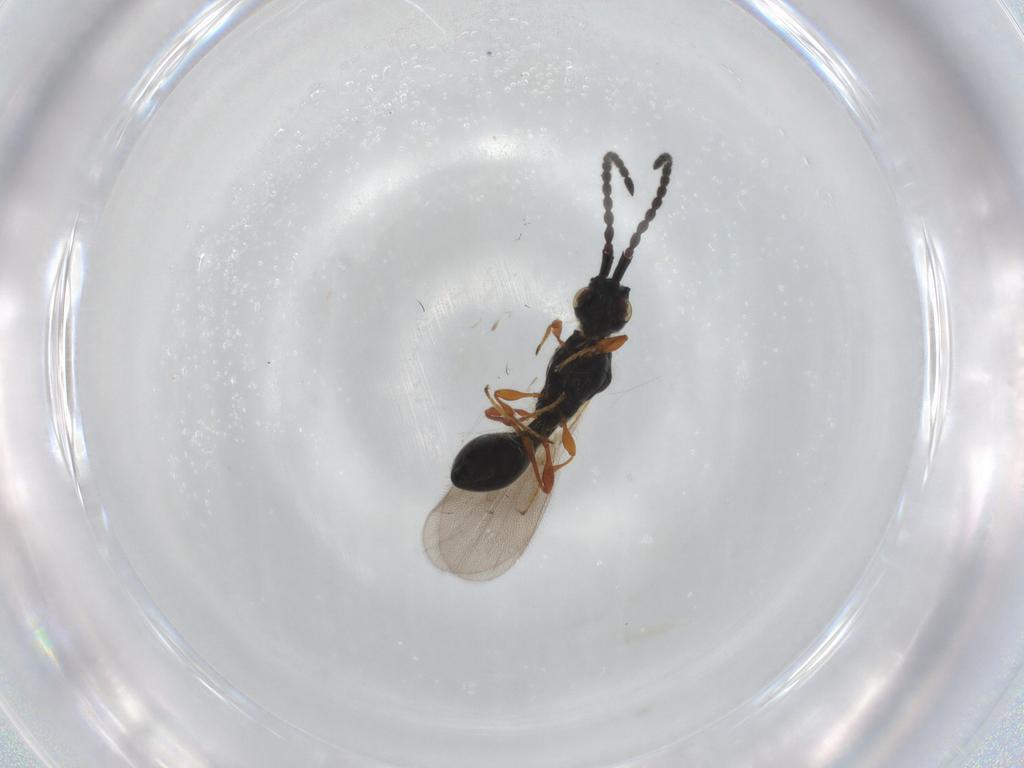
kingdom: Animalia
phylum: Arthropoda
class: Insecta
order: Hymenoptera
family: Diapriidae
